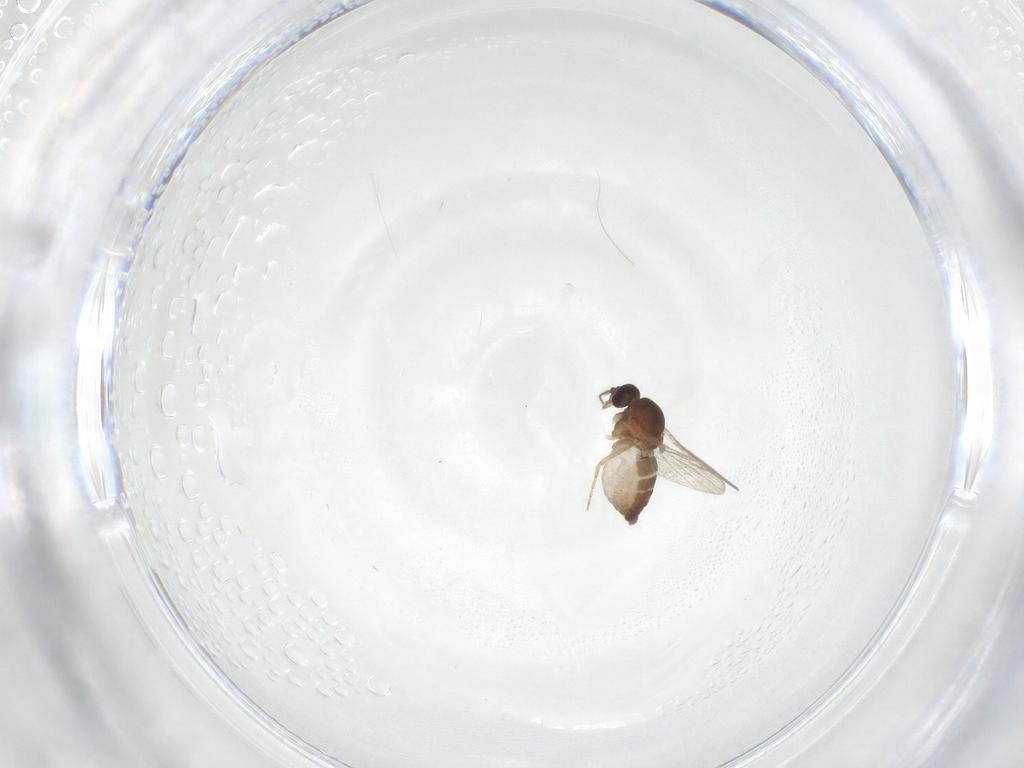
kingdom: Animalia
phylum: Arthropoda
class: Insecta
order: Diptera
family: Ceratopogonidae
